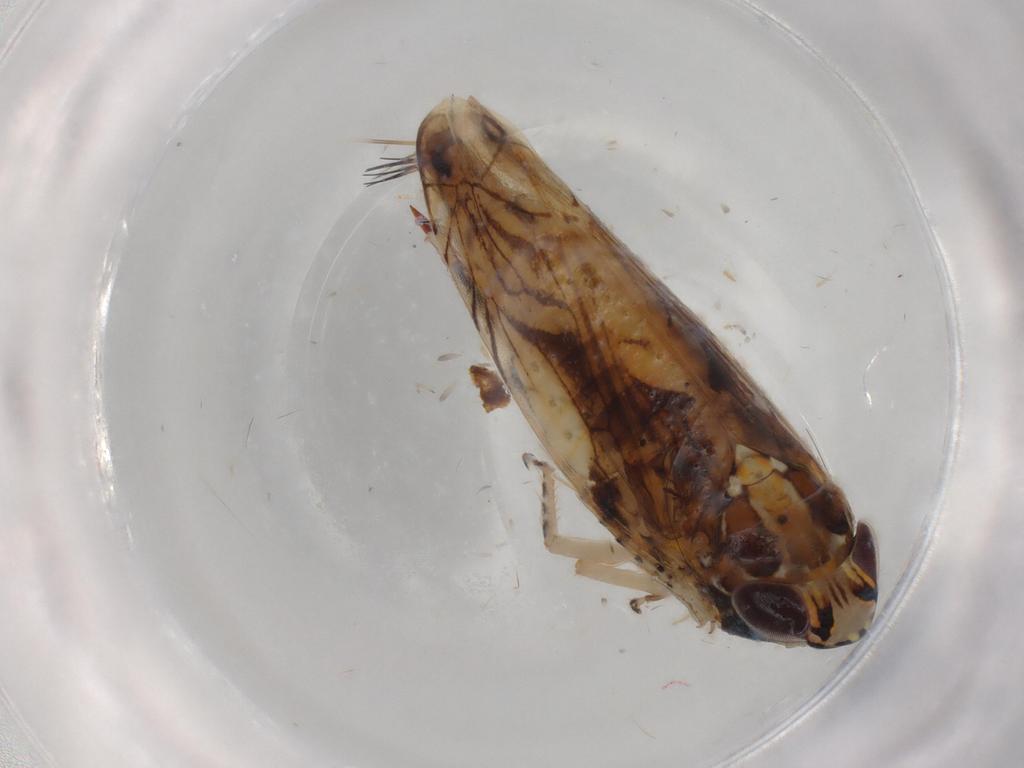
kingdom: Animalia
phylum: Arthropoda
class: Insecta
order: Hemiptera
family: Cicadellidae
